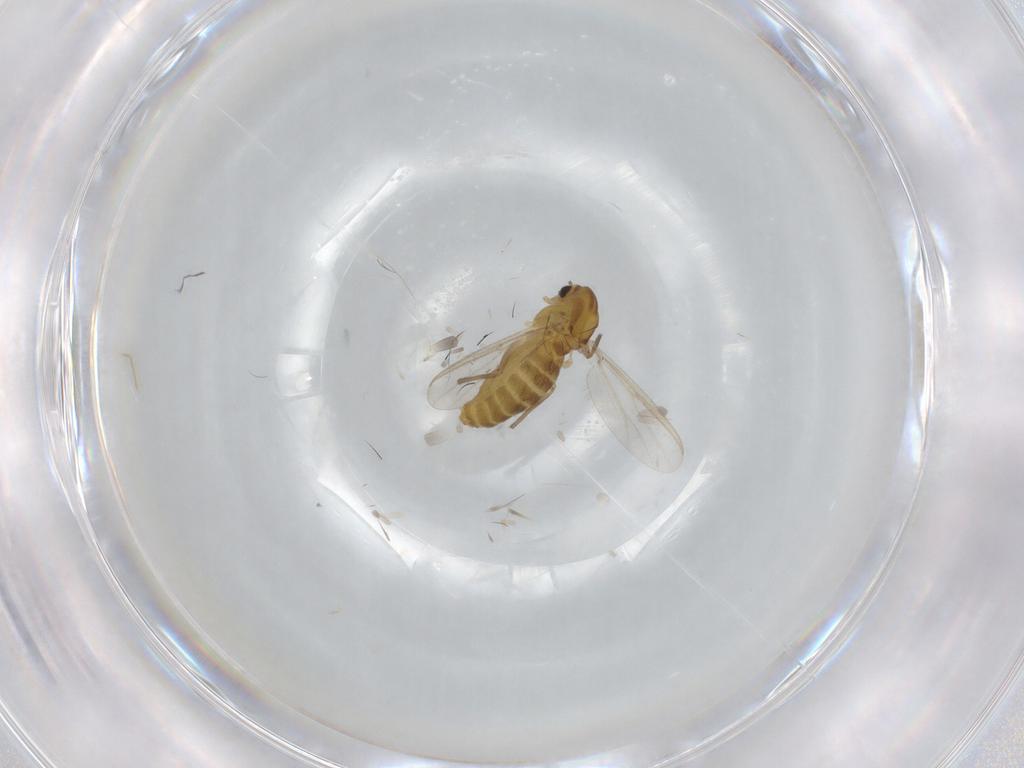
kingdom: Animalia
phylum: Arthropoda
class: Insecta
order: Diptera
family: Chironomidae
